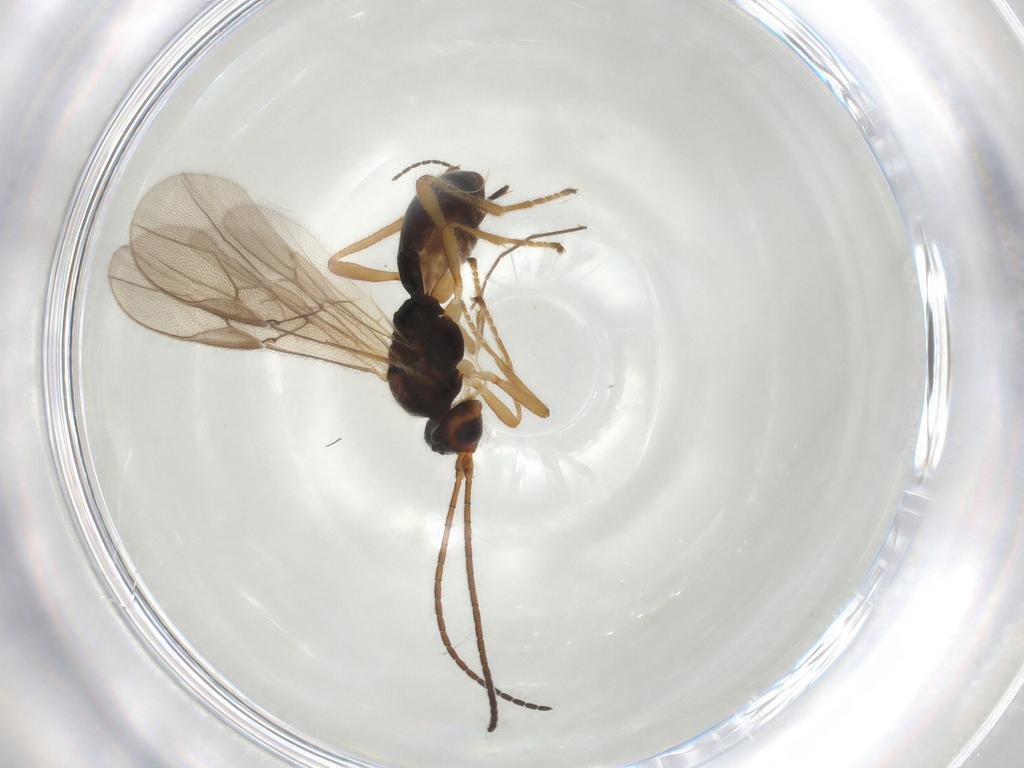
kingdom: Animalia
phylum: Arthropoda
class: Insecta
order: Hymenoptera
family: Braconidae
